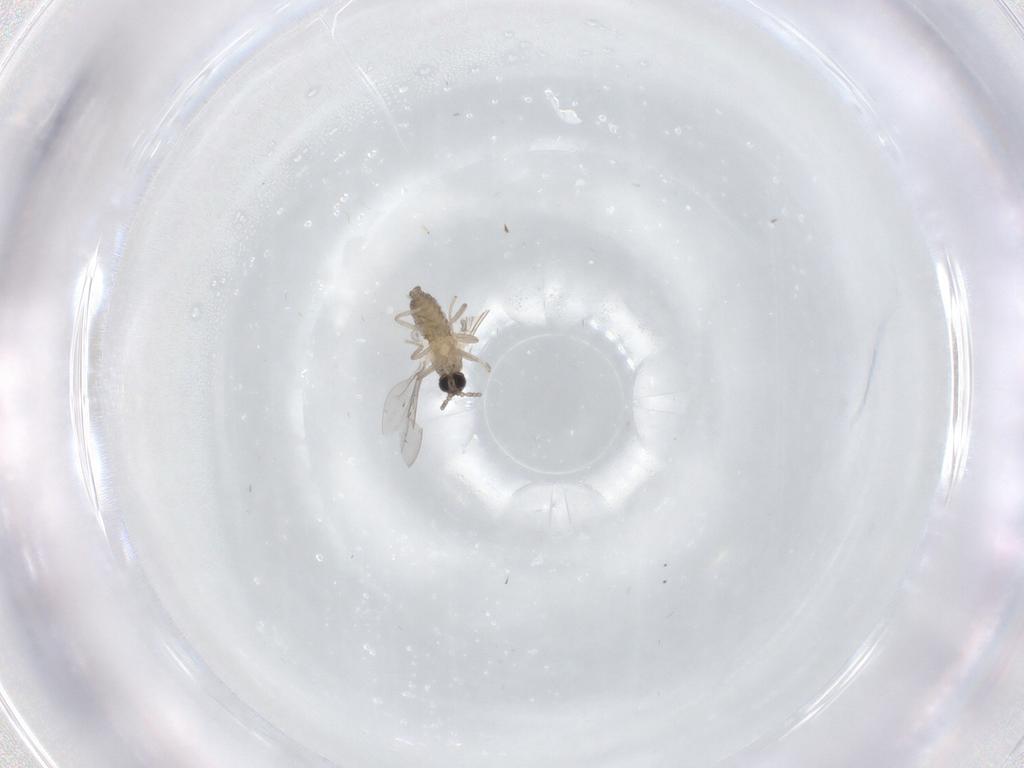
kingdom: Animalia
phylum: Arthropoda
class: Insecta
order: Diptera
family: Cecidomyiidae
